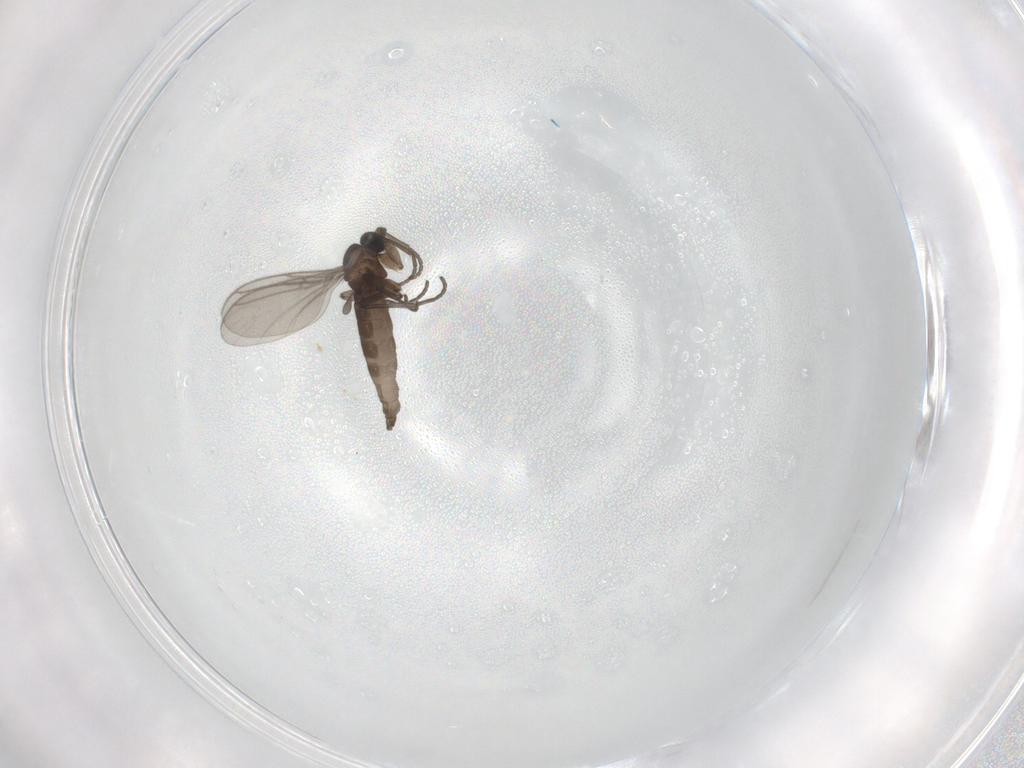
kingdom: Animalia
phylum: Arthropoda
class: Insecta
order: Diptera
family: Sciaridae
